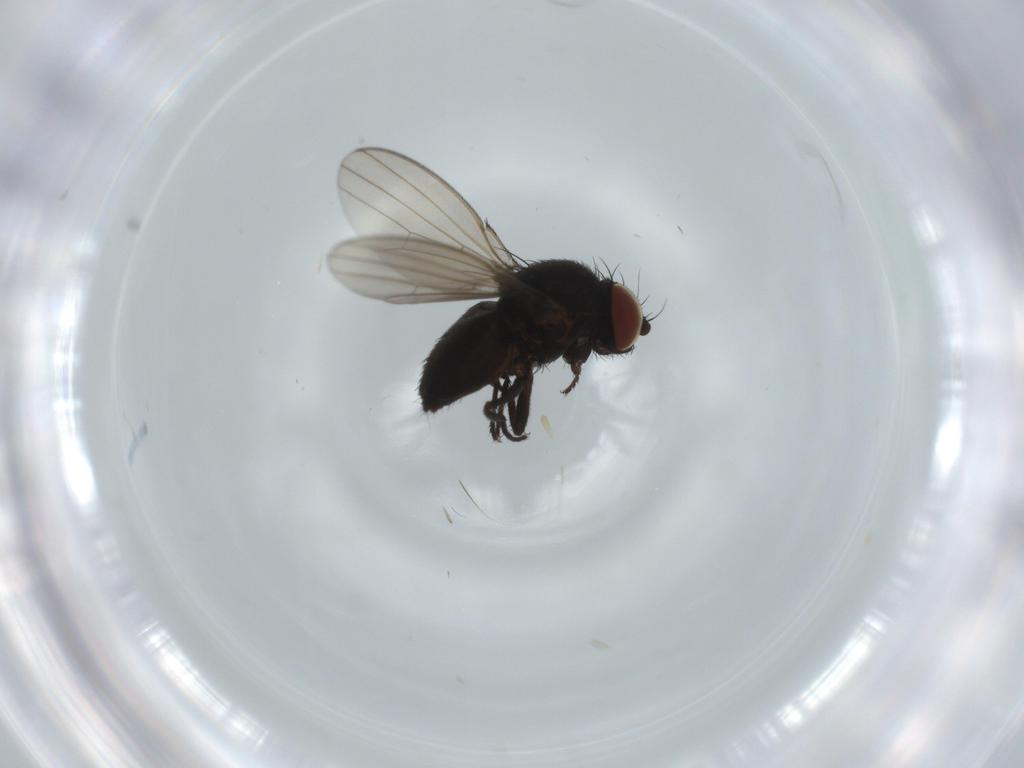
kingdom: Animalia
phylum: Arthropoda
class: Insecta
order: Diptera
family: Milichiidae
